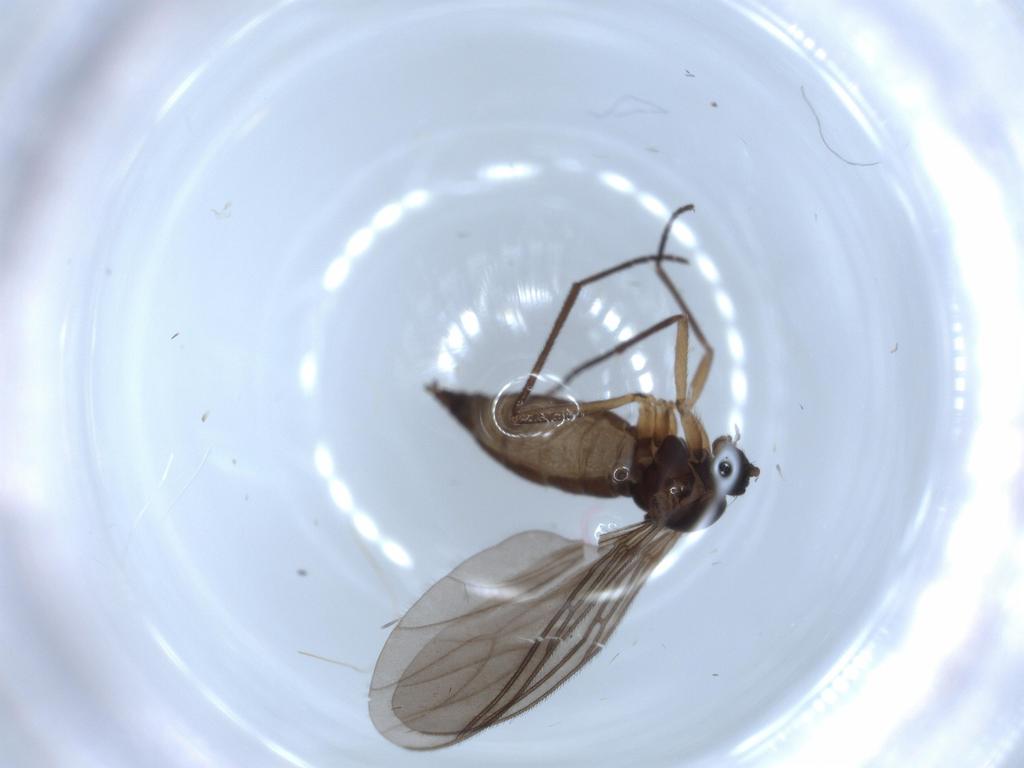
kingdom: Animalia
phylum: Arthropoda
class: Insecta
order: Diptera
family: Sciaridae
